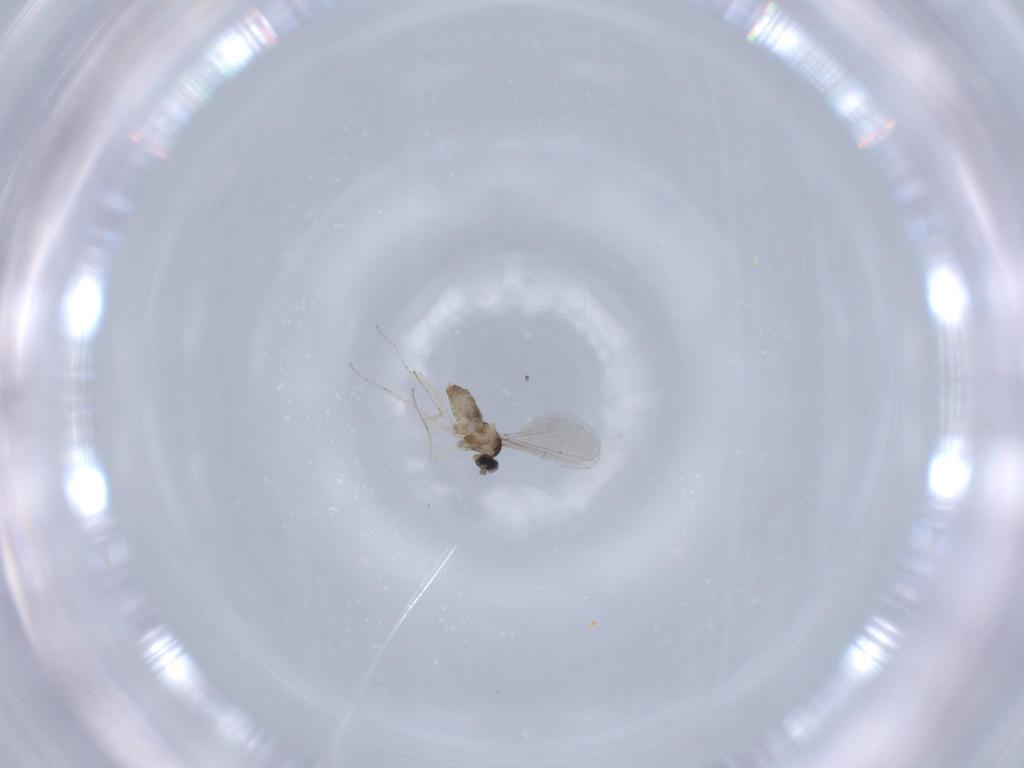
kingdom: Animalia
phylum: Arthropoda
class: Insecta
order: Diptera
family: Cecidomyiidae
